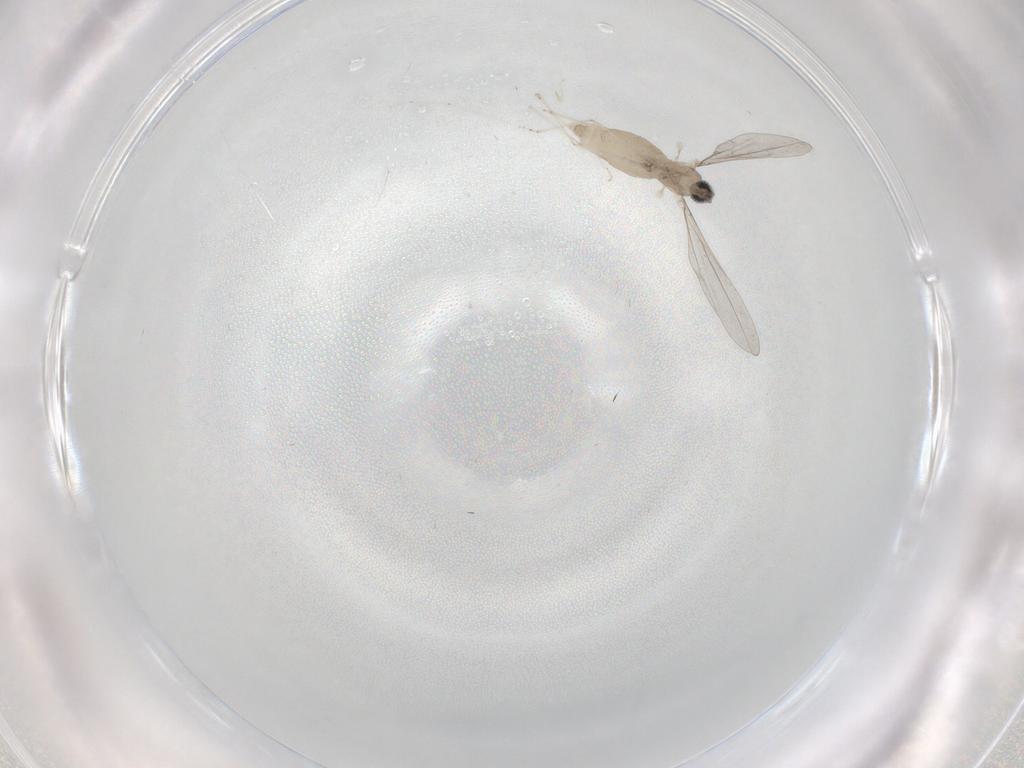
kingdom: Animalia
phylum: Arthropoda
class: Insecta
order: Diptera
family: Cecidomyiidae
